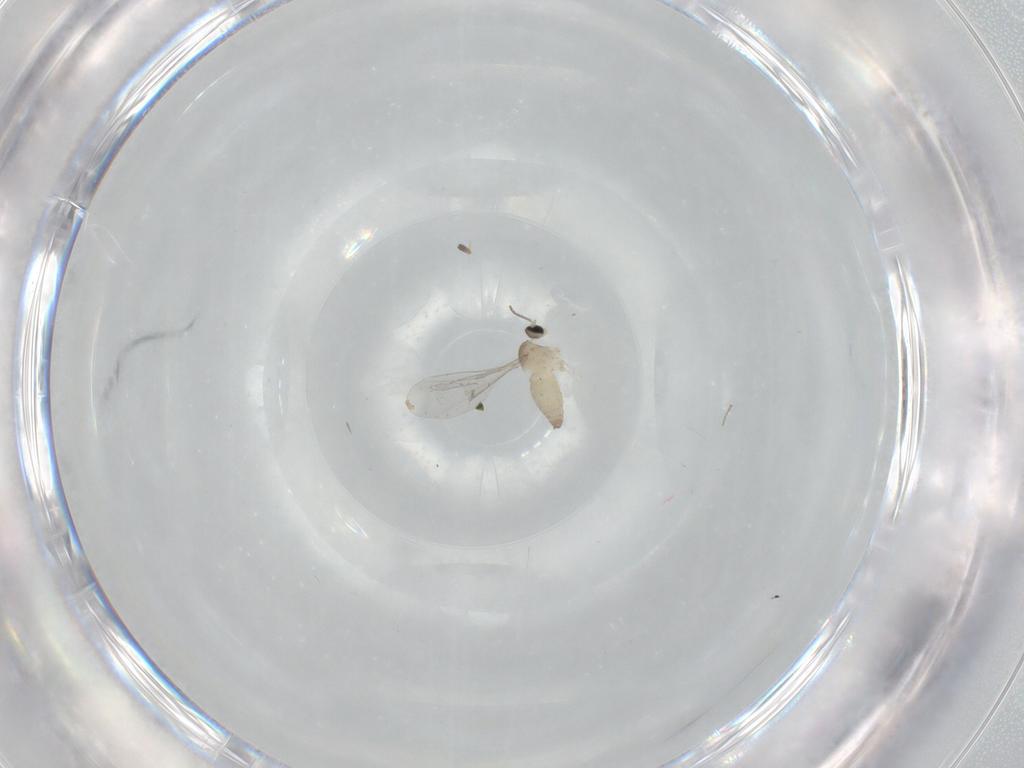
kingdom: Animalia
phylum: Arthropoda
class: Insecta
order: Diptera
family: Cecidomyiidae
